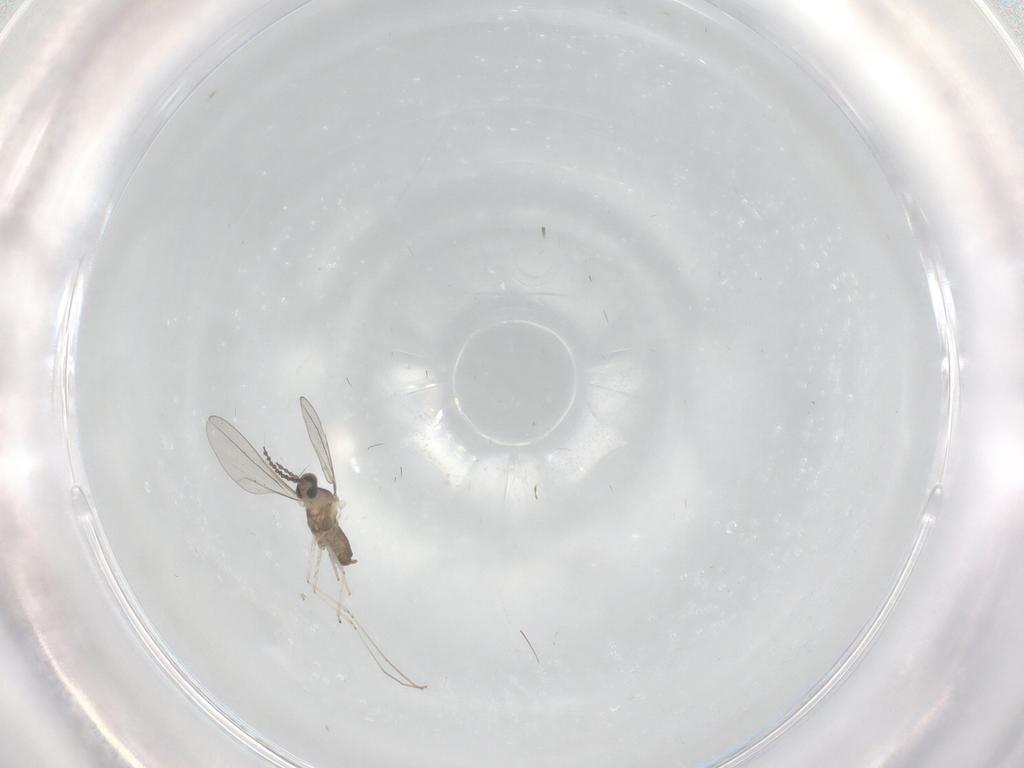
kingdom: Animalia
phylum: Arthropoda
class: Insecta
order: Diptera
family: Cecidomyiidae
